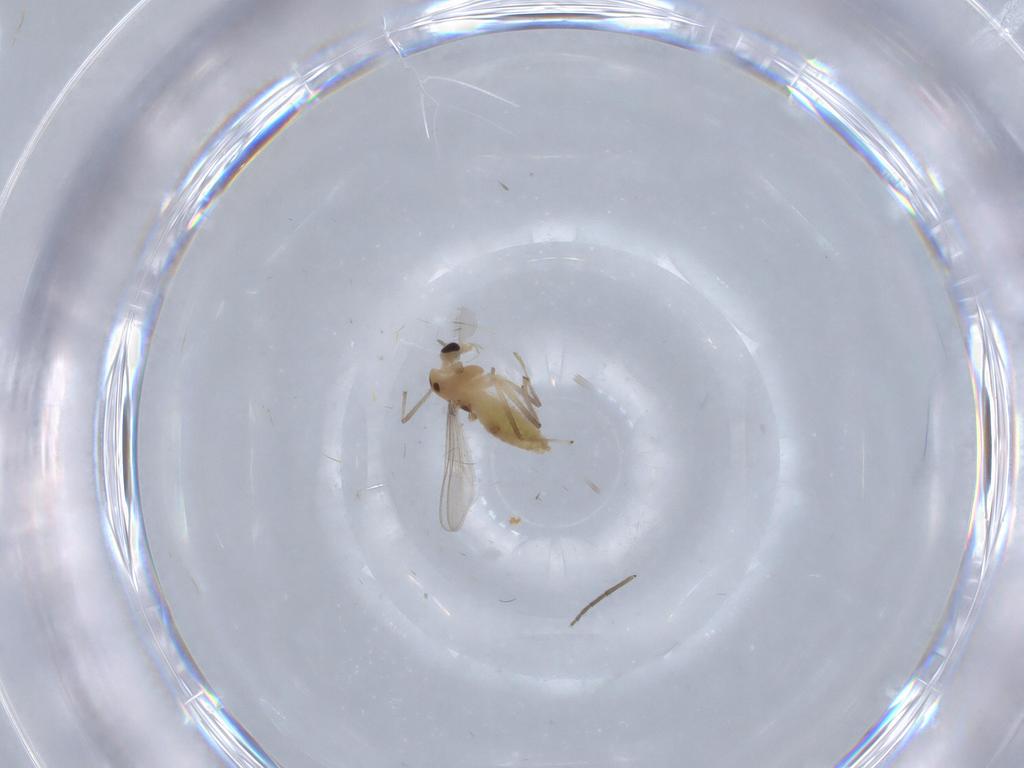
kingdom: Animalia
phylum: Arthropoda
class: Insecta
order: Diptera
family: Chironomidae
